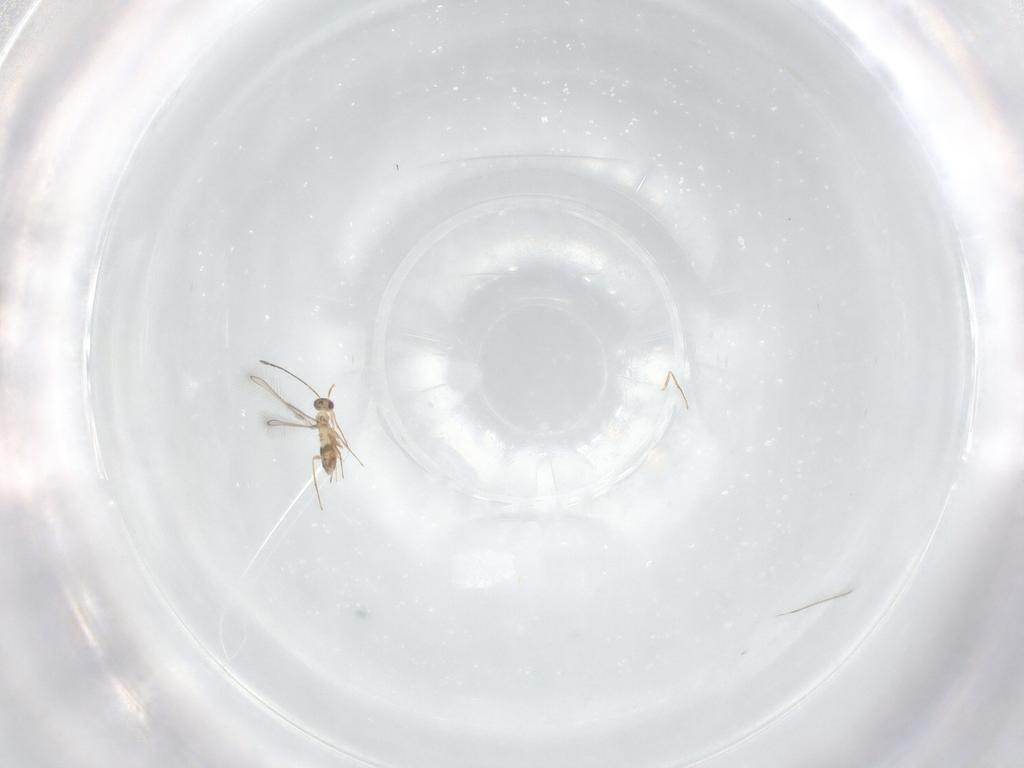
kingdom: Animalia
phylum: Arthropoda
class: Insecta
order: Hymenoptera
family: Mymaridae
